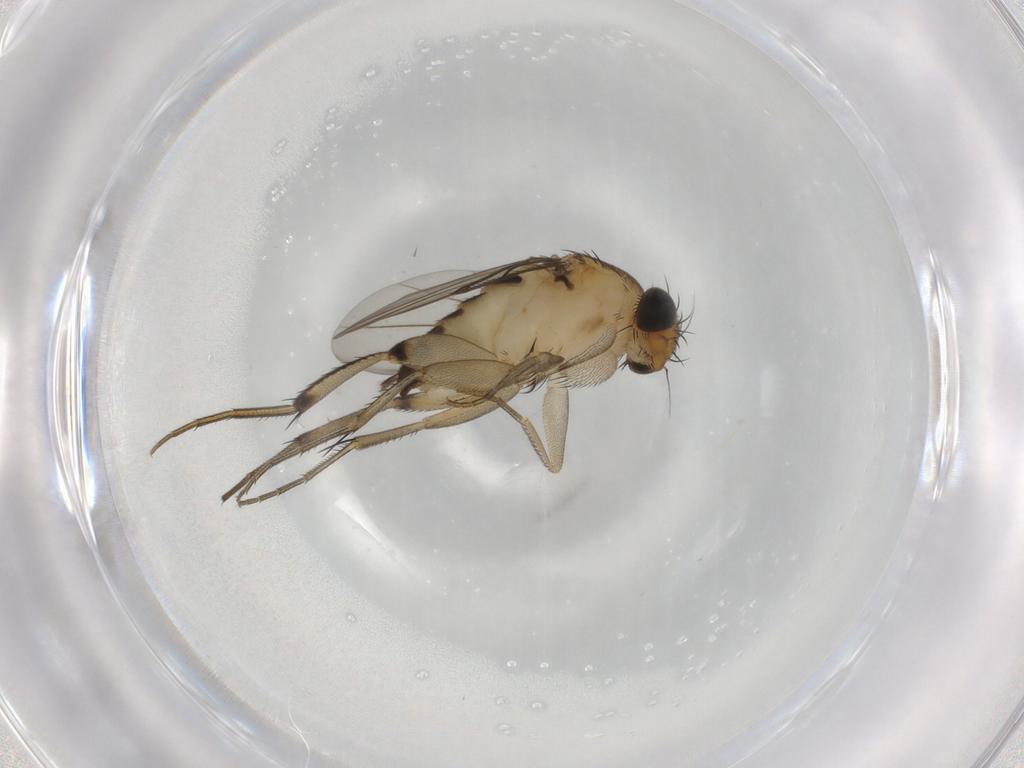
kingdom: Animalia
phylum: Arthropoda
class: Insecta
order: Diptera
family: Phoridae
